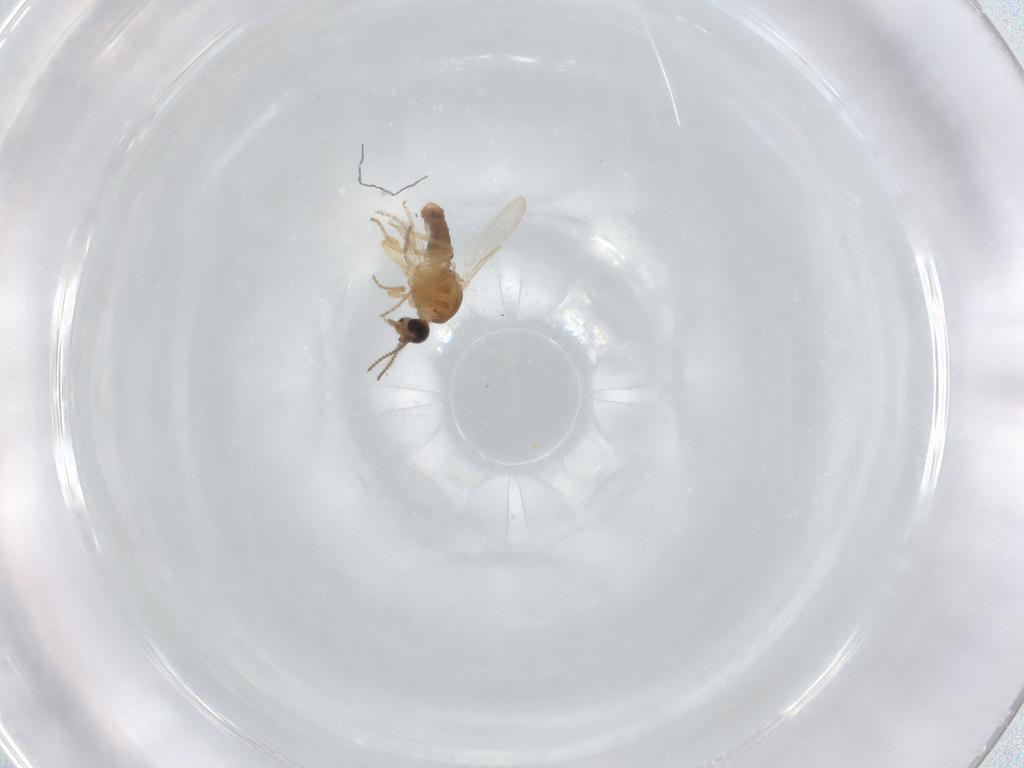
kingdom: Animalia
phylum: Arthropoda
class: Insecta
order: Diptera
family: Ceratopogonidae
